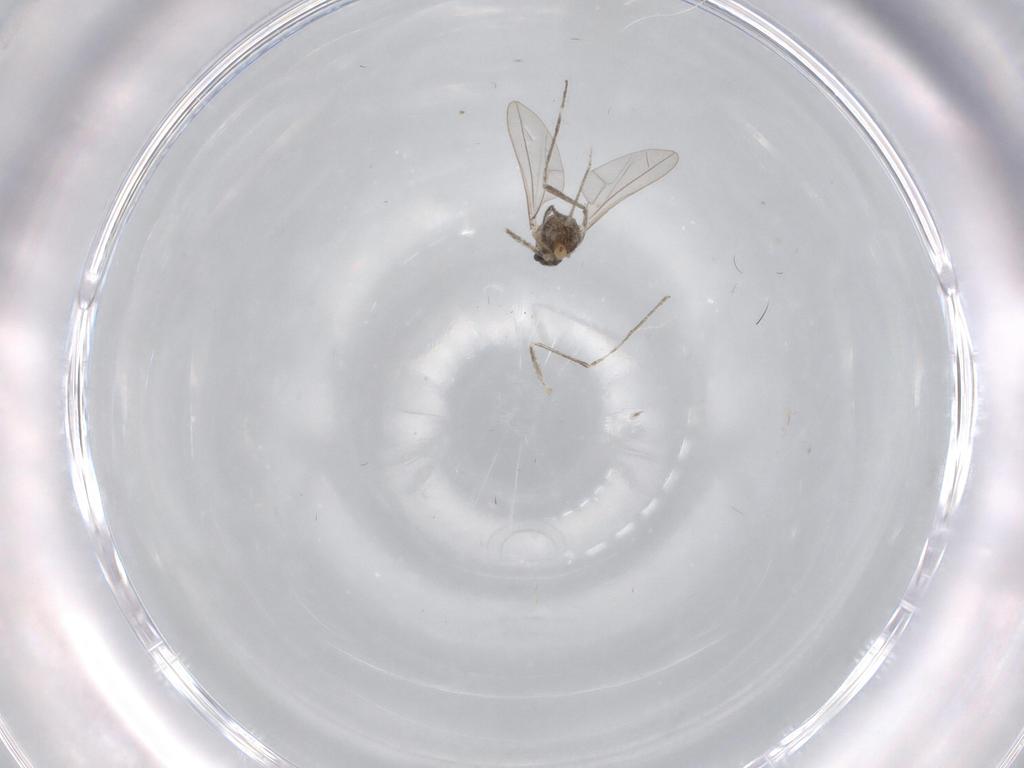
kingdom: Animalia
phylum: Arthropoda
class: Insecta
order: Diptera
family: Cecidomyiidae
